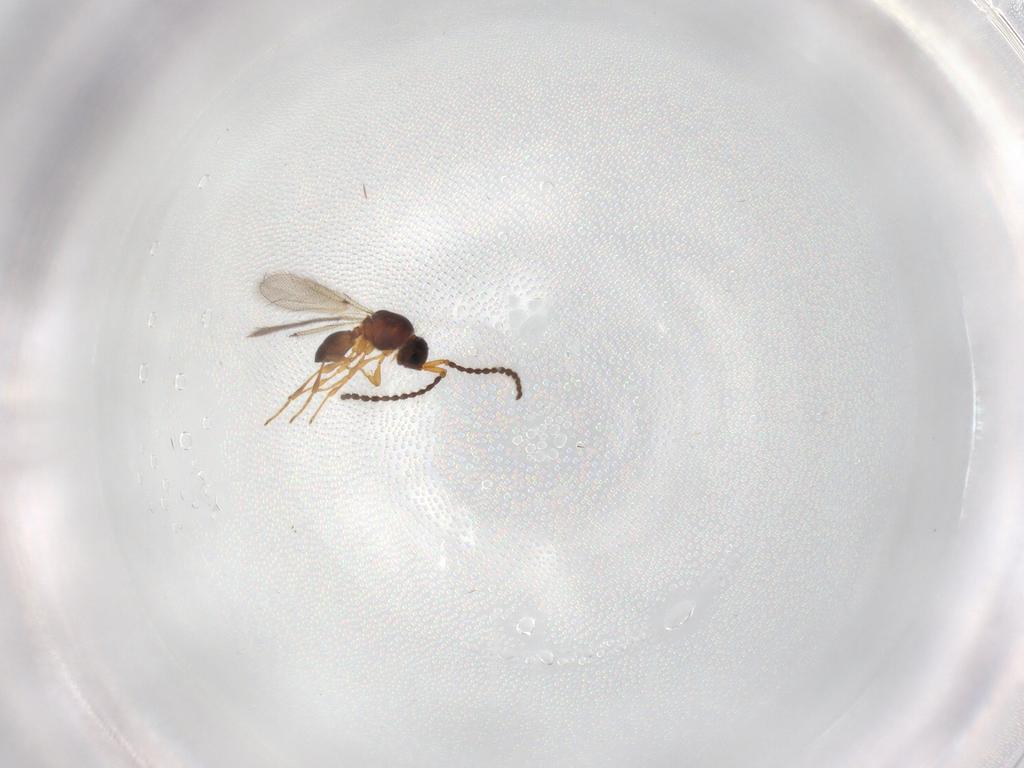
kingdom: Animalia
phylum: Arthropoda
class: Insecta
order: Hymenoptera
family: Diapriidae
